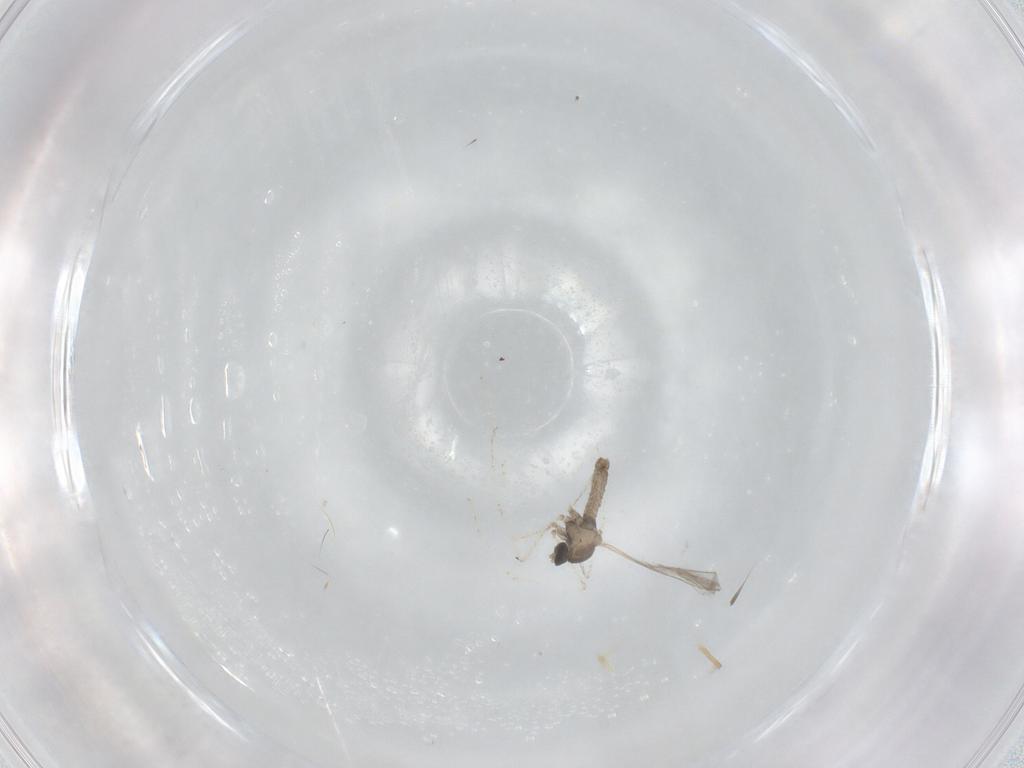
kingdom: Animalia
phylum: Arthropoda
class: Insecta
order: Diptera
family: Cecidomyiidae
